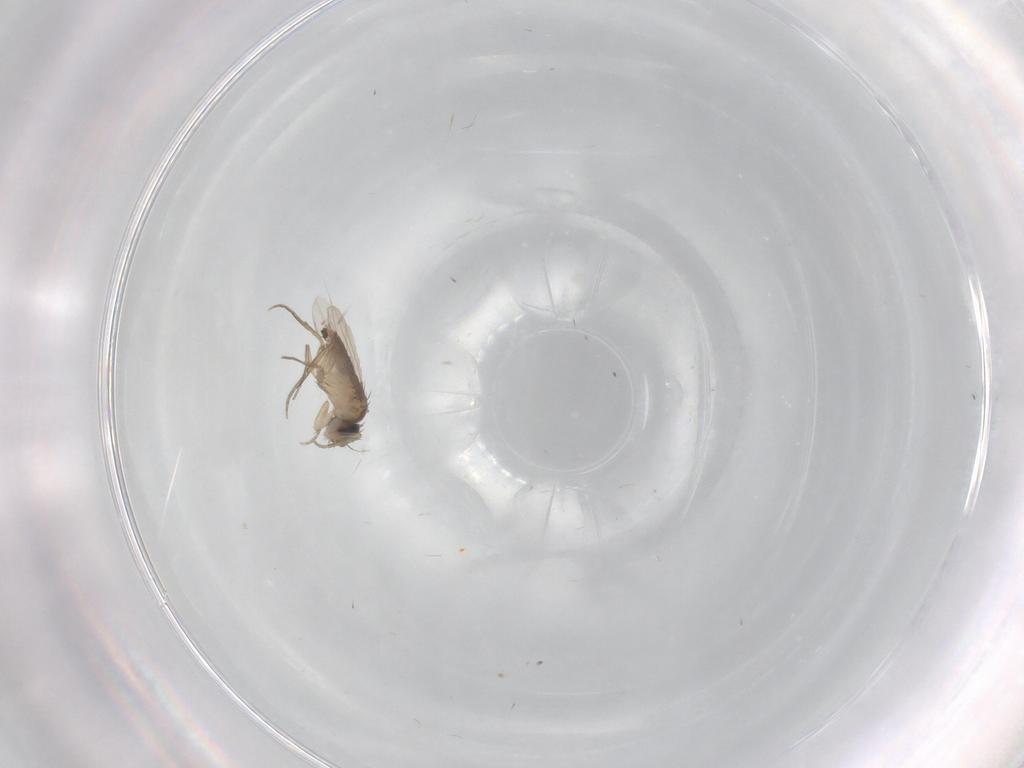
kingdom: Animalia
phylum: Arthropoda
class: Insecta
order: Diptera
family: Phoridae
